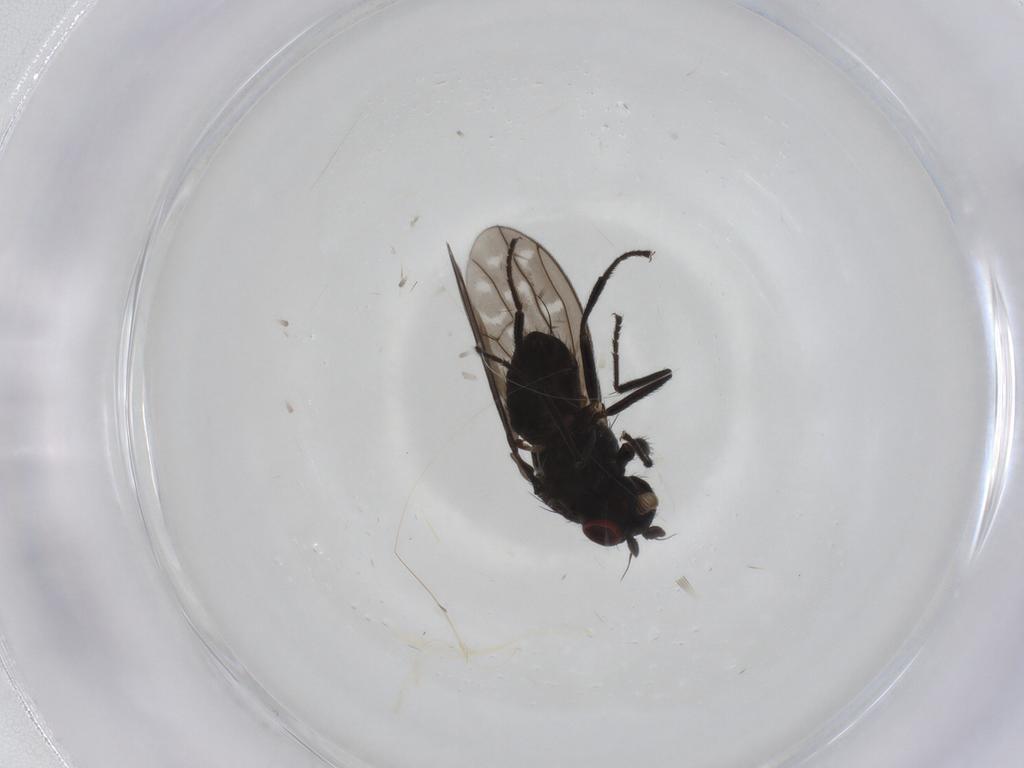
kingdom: Animalia
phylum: Arthropoda
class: Insecta
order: Diptera
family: Ephydridae
